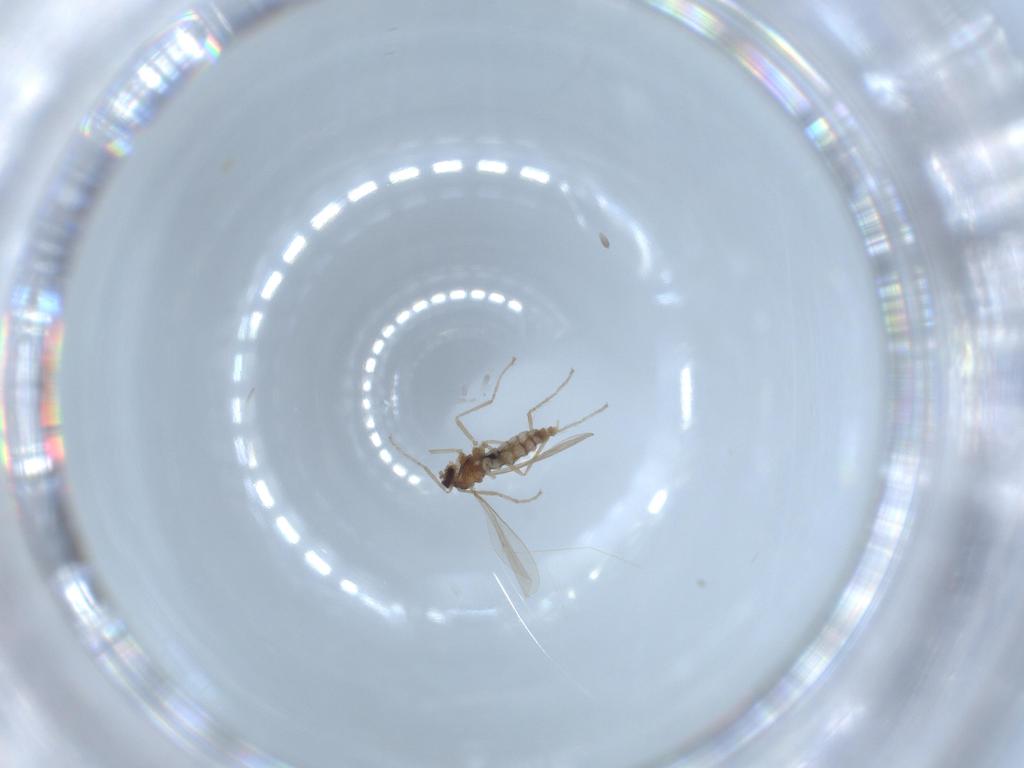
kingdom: Animalia
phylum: Arthropoda
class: Insecta
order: Diptera
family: Cecidomyiidae
